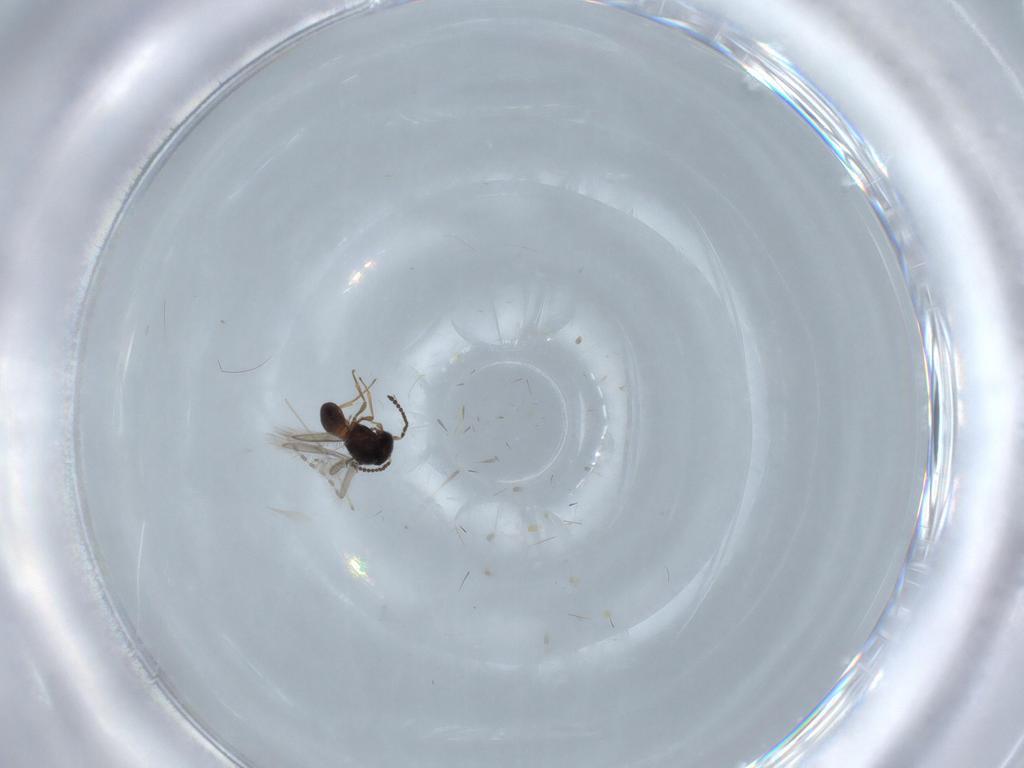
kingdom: Animalia
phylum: Arthropoda
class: Insecta
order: Hymenoptera
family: Scelionidae
